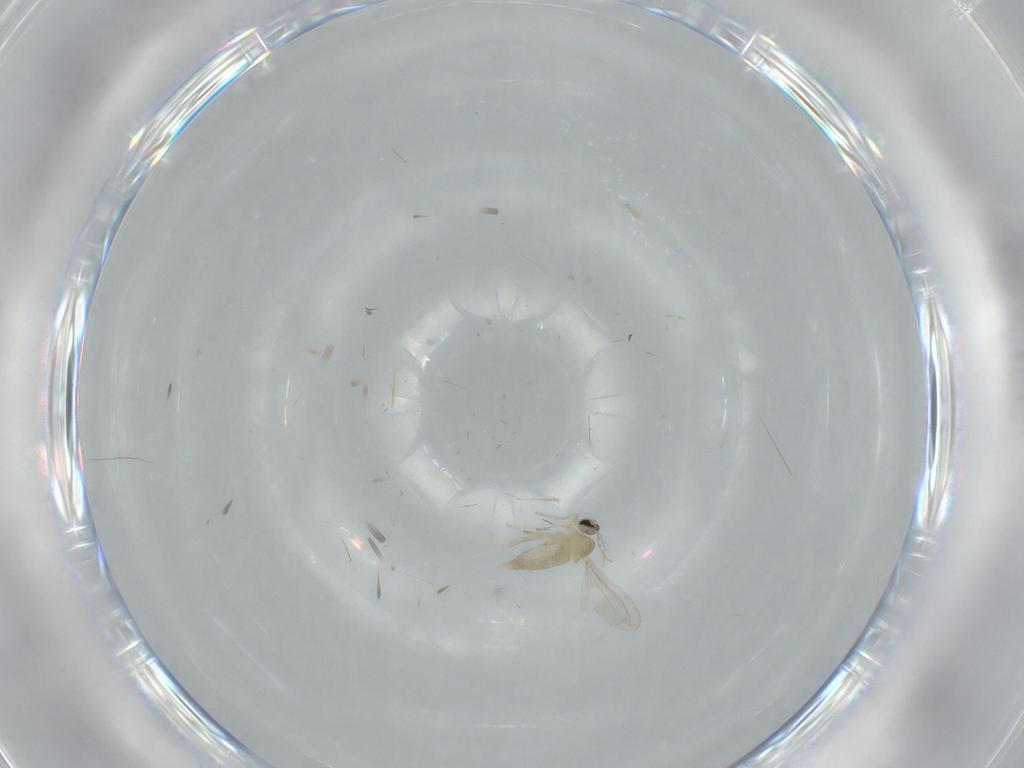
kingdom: Animalia
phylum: Arthropoda
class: Insecta
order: Diptera
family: Cecidomyiidae
